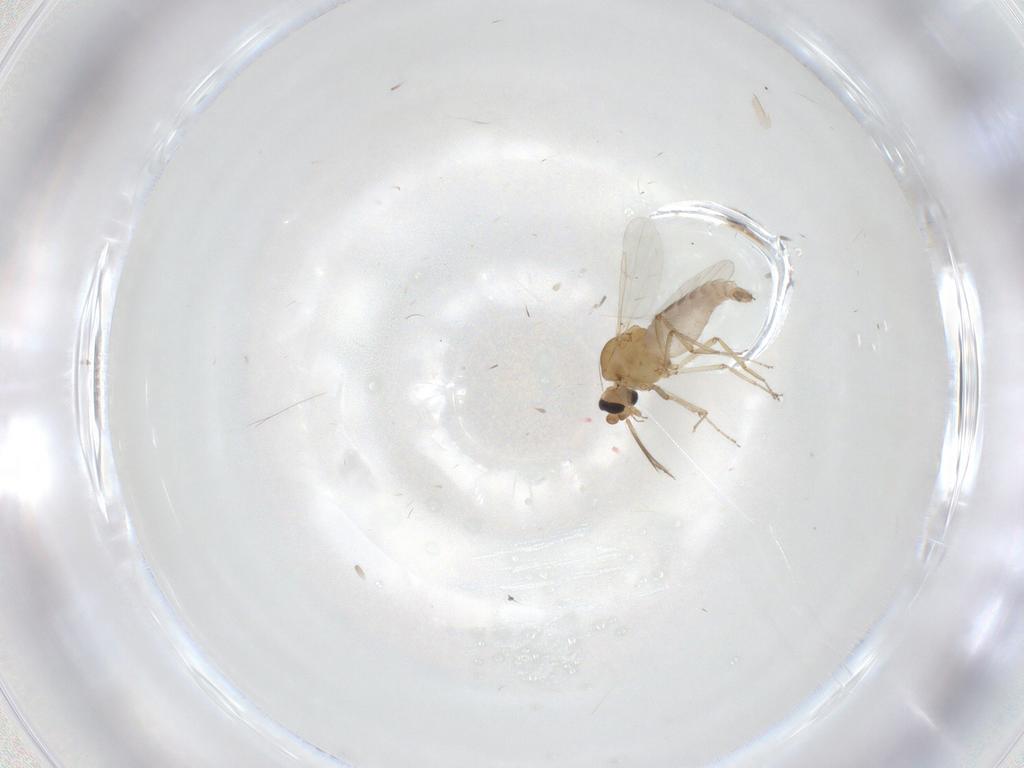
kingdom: Animalia
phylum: Arthropoda
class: Insecta
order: Diptera
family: Ceratopogonidae
